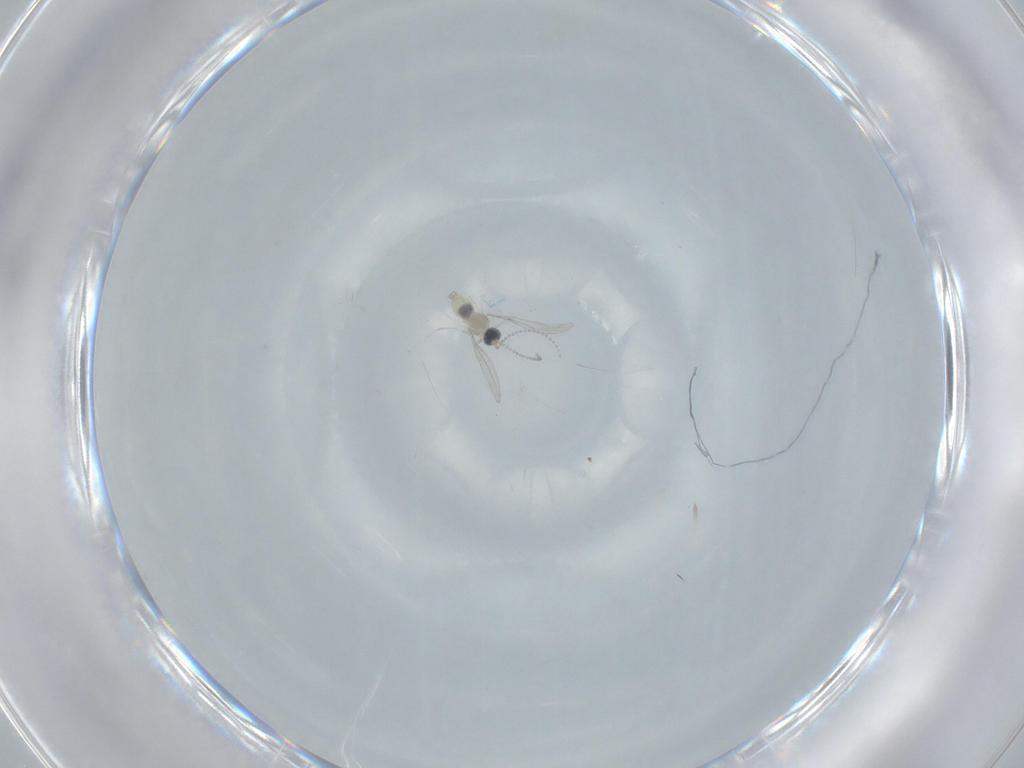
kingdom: Animalia
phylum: Arthropoda
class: Insecta
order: Diptera
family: Cecidomyiidae
